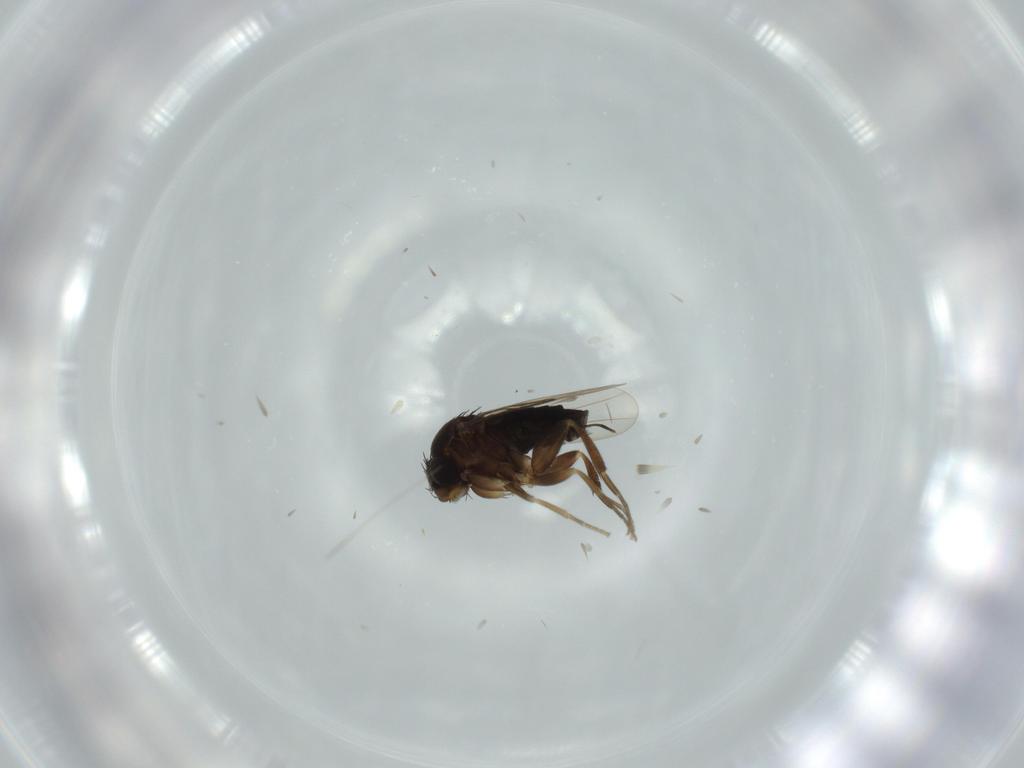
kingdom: Animalia
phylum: Arthropoda
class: Insecta
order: Diptera
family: Phoridae
